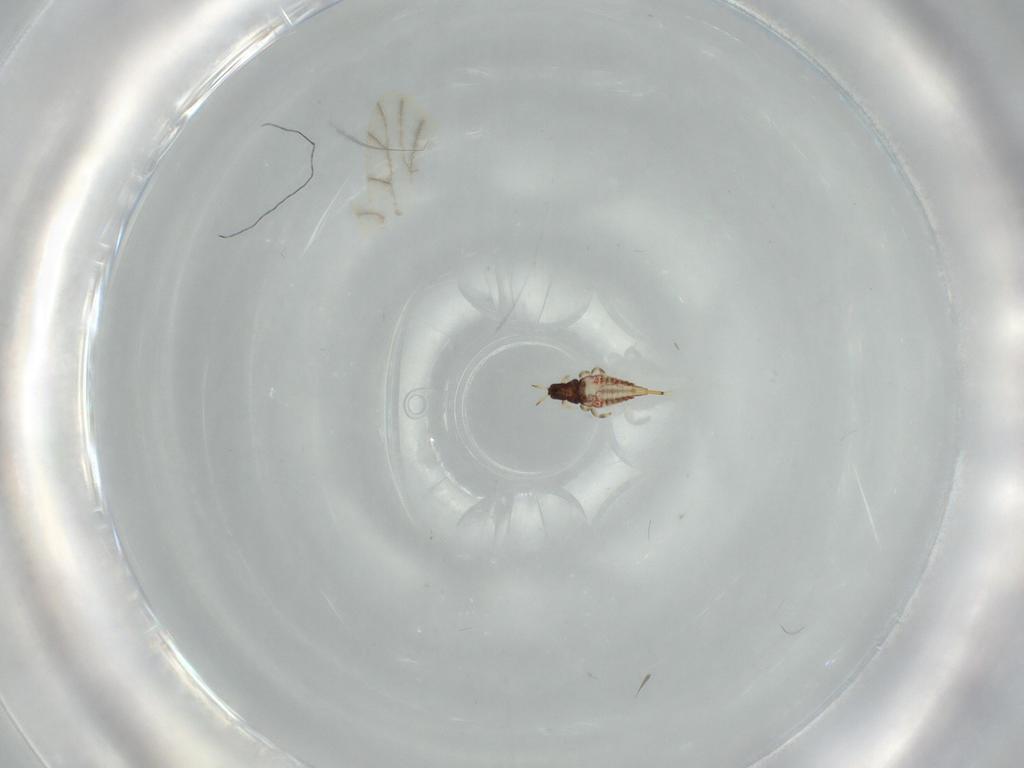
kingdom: Animalia
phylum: Arthropoda
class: Insecta
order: Thysanoptera
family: Phlaeothripidae
